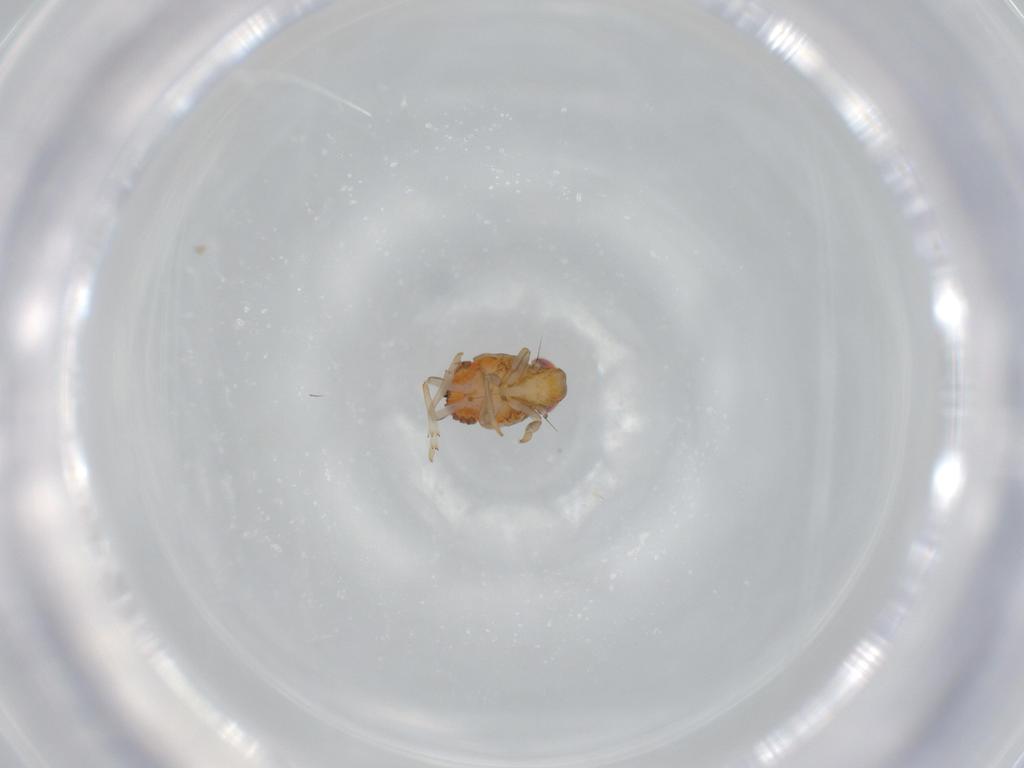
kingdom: Animalia
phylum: Arthropoda
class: Insecta
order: Hemiptera
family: Issidae
